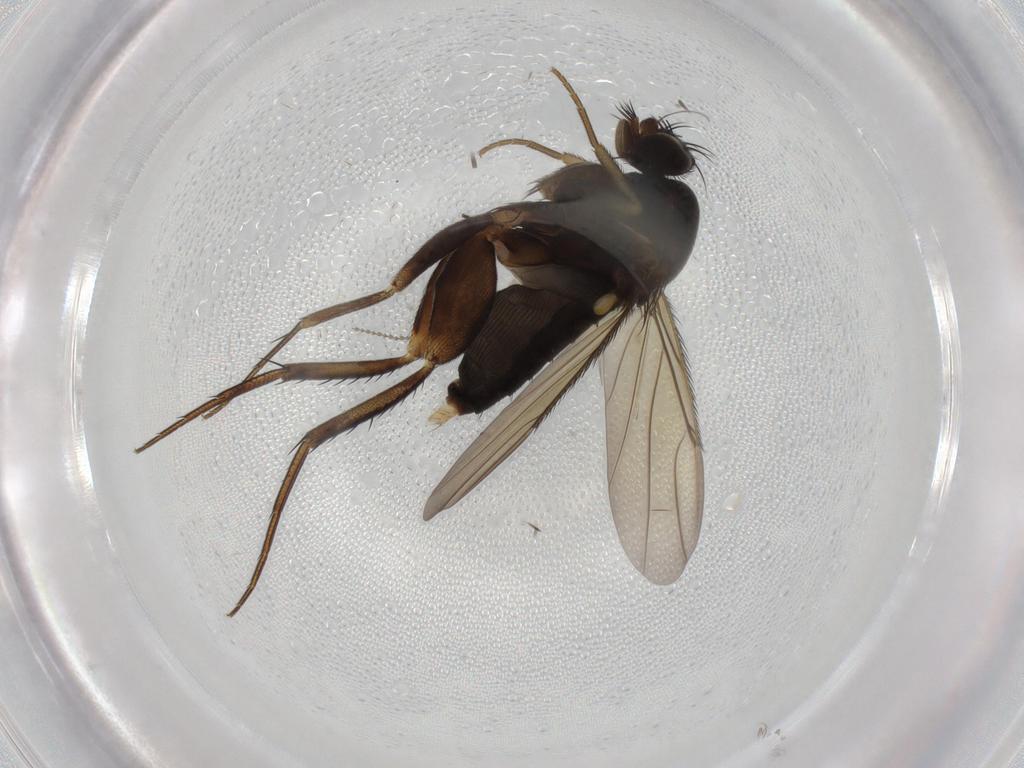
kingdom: Animalia
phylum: Arthropoda
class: Insecta
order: Diptera
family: Phoridae
